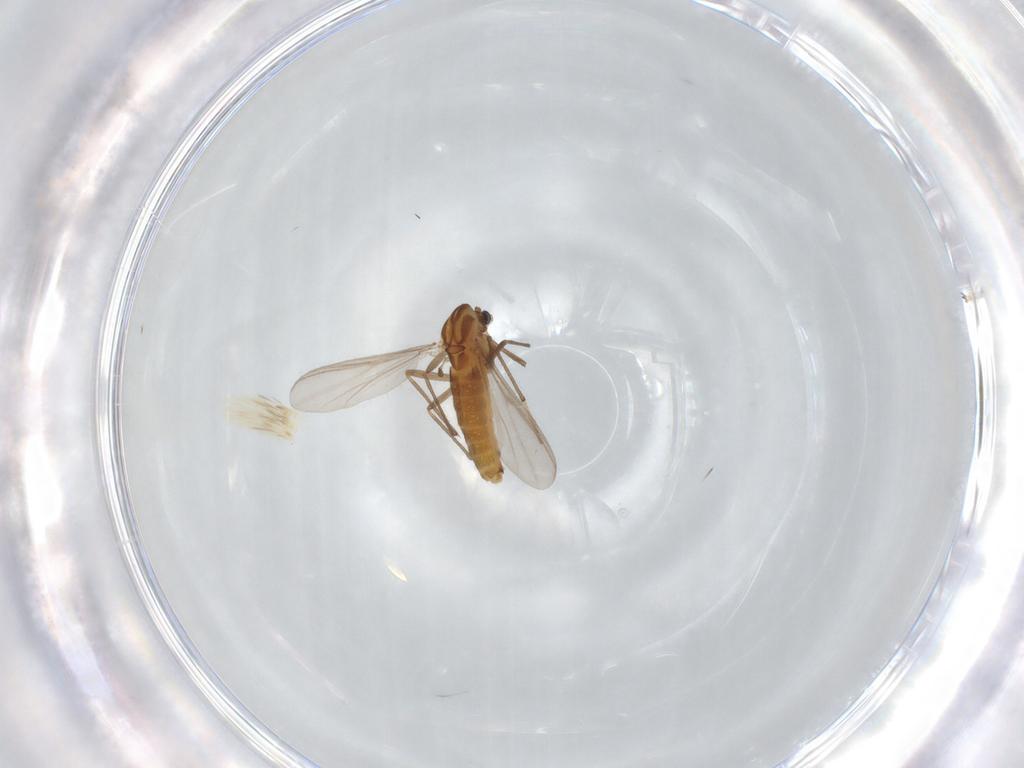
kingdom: Animalia
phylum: Arthropoda
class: Insecta
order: Diptera
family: Chironomidae
